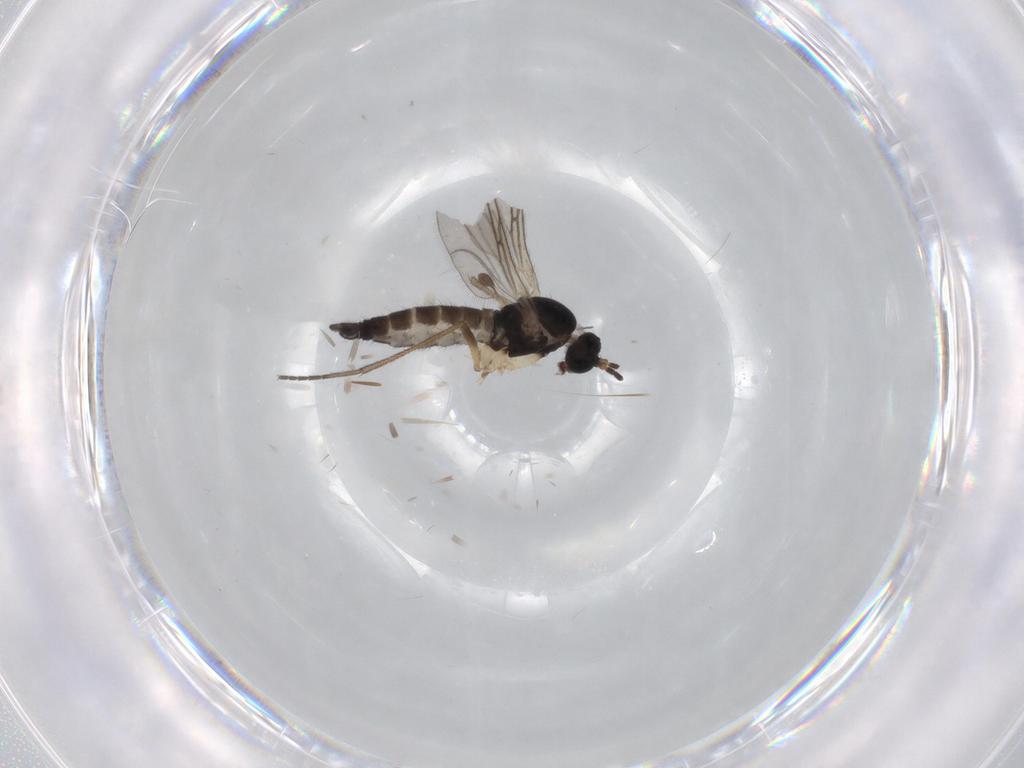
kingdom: Animalia
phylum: Arthropoda
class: Insecta
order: Diptera
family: Sciaridae
